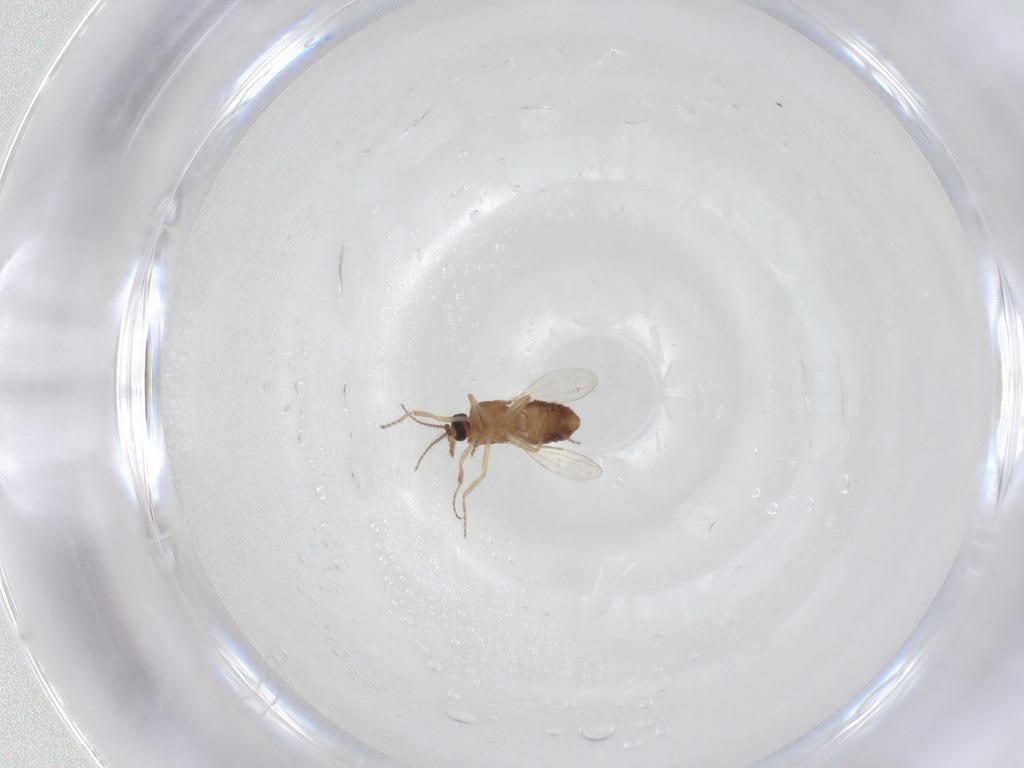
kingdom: Animalia
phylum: Arthropoda
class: Insecta
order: Diptera
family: Ceratopogonidae
